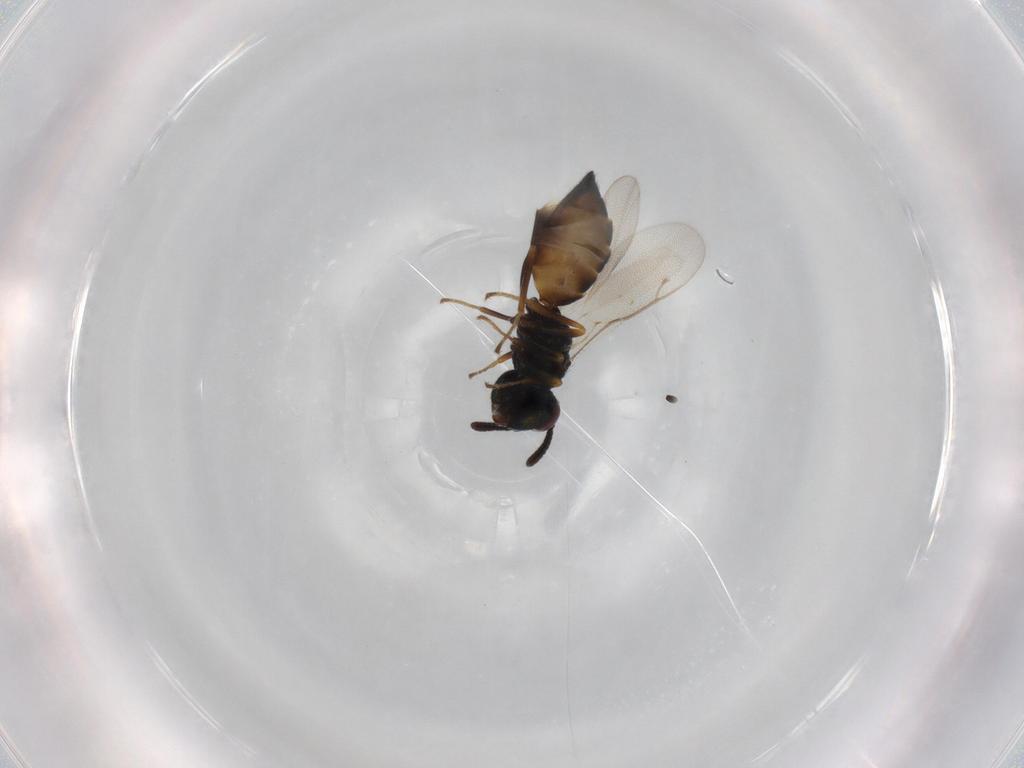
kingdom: Animalia
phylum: Arthropoda
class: Insecta
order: Hymenoptera
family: Pteromalidae
